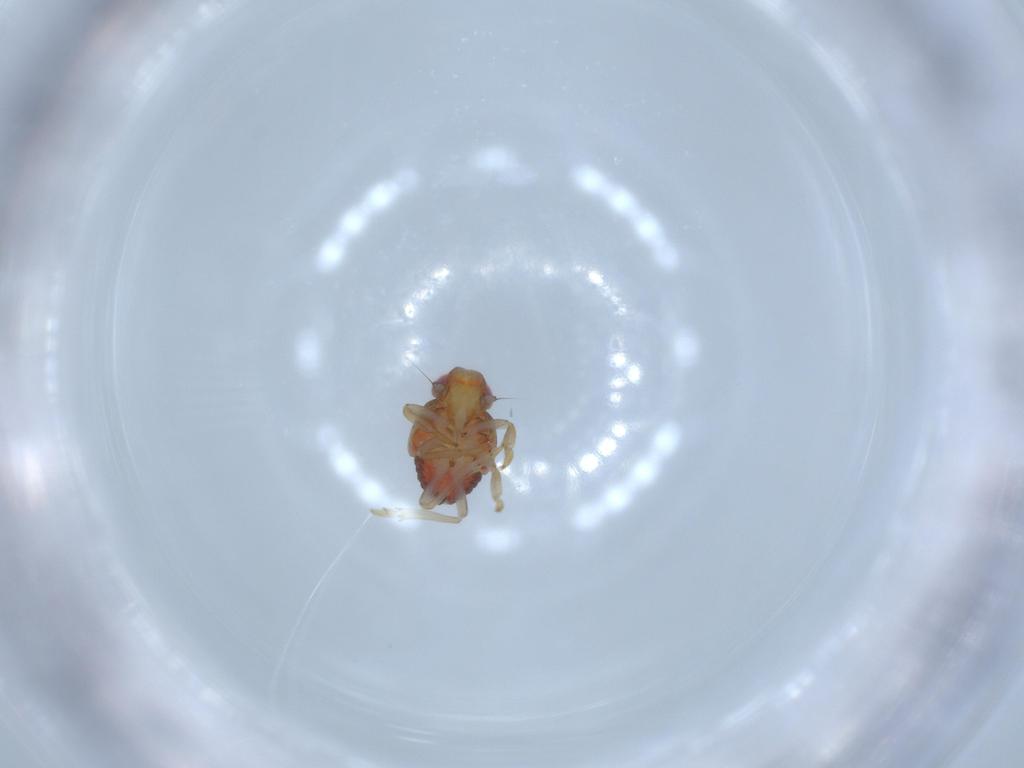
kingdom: Animalia
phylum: Arthropoda
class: Insecta
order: Hemiptera
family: Issidae
